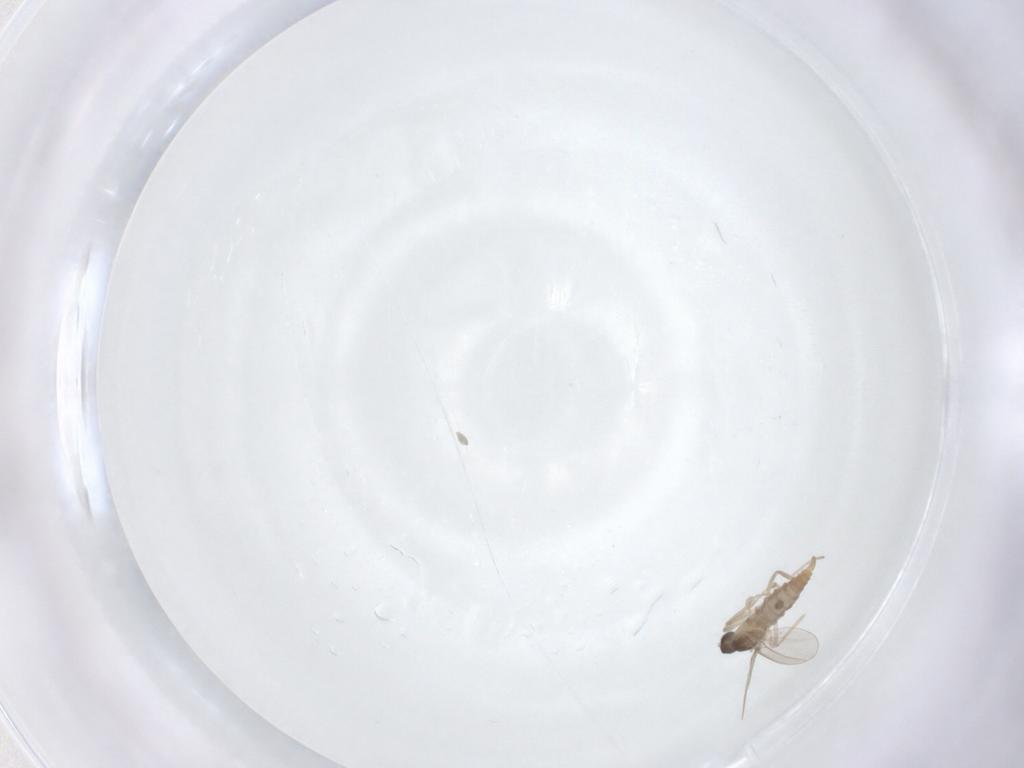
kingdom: Animalia
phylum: Arthropoda
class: Insecta
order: Diptera
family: Cecidomyiidae
